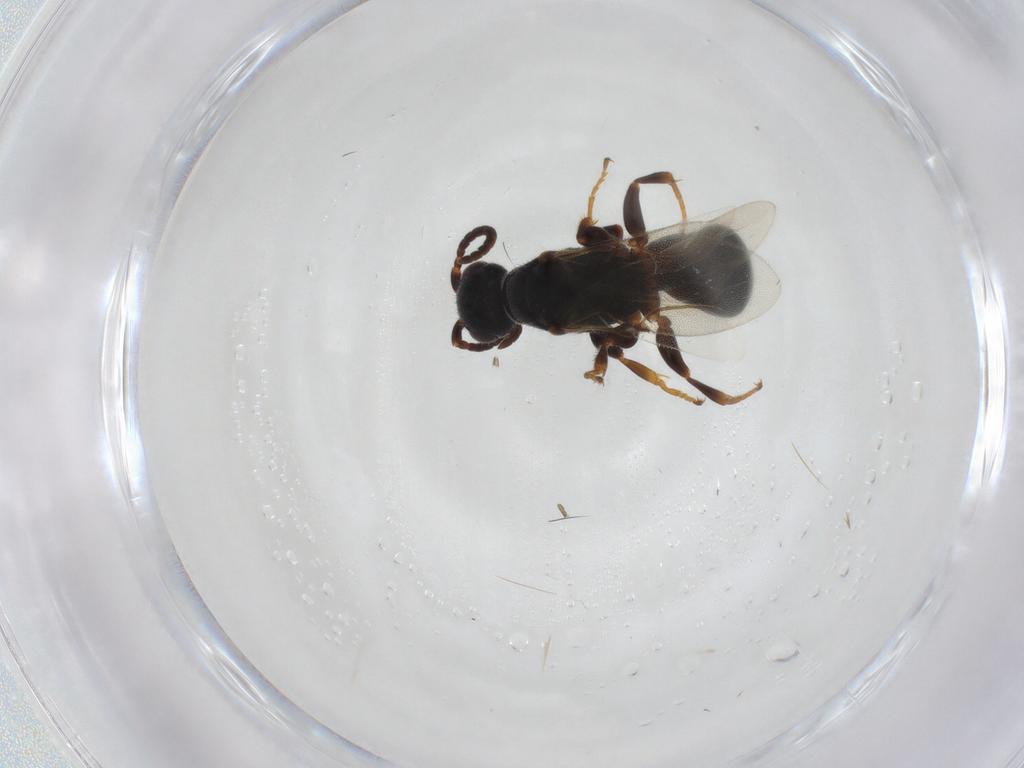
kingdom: Animalia
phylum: Arthropoda
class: Insecta
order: Hymenoptera
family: Bethylidae
